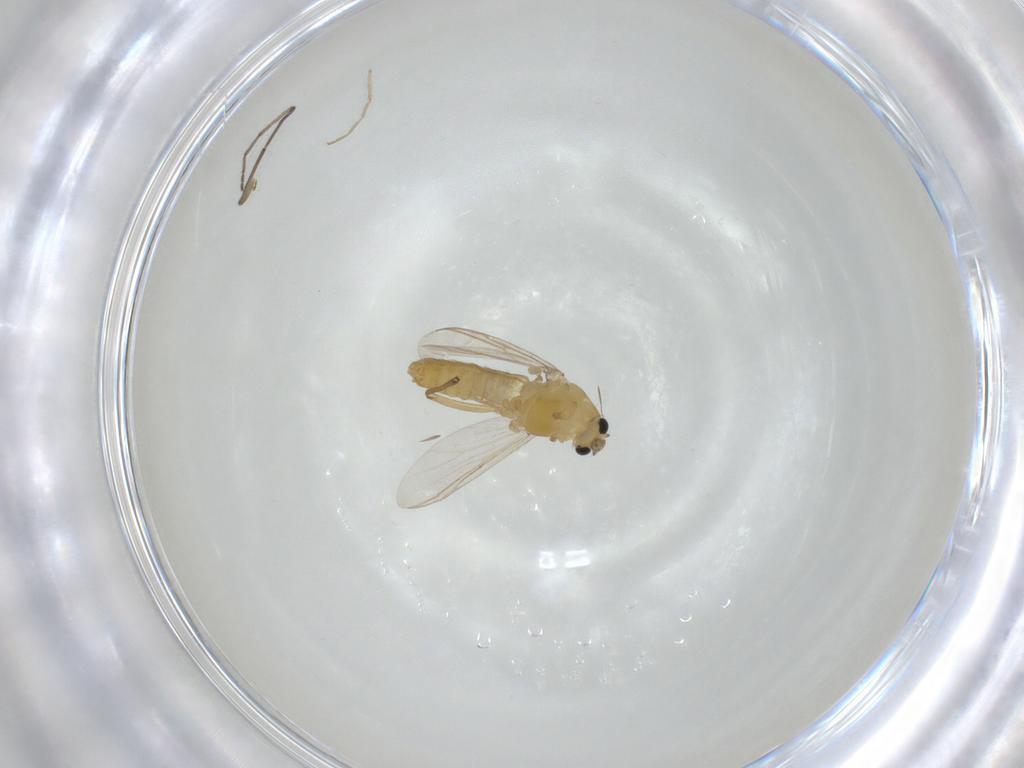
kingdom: Animalia
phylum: Arthropoda
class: Insecta
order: Diptera
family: Chironomidae
